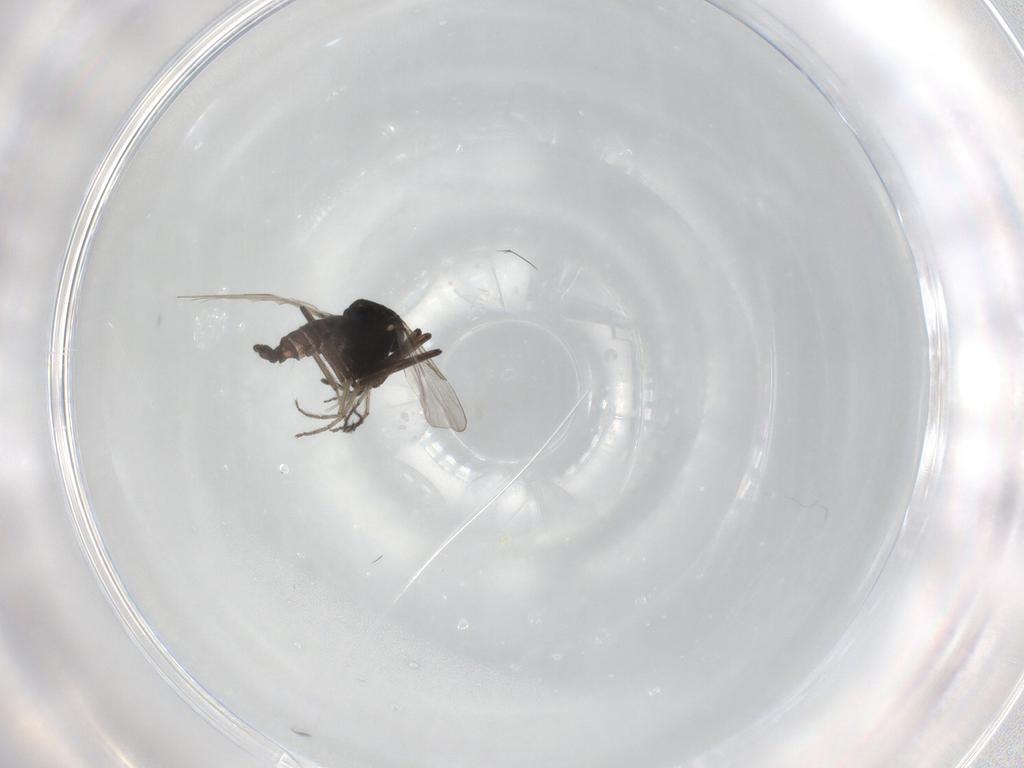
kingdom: Animalia
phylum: Arthropoda
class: Insecta
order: Diptera
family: Ceratopogonidae
